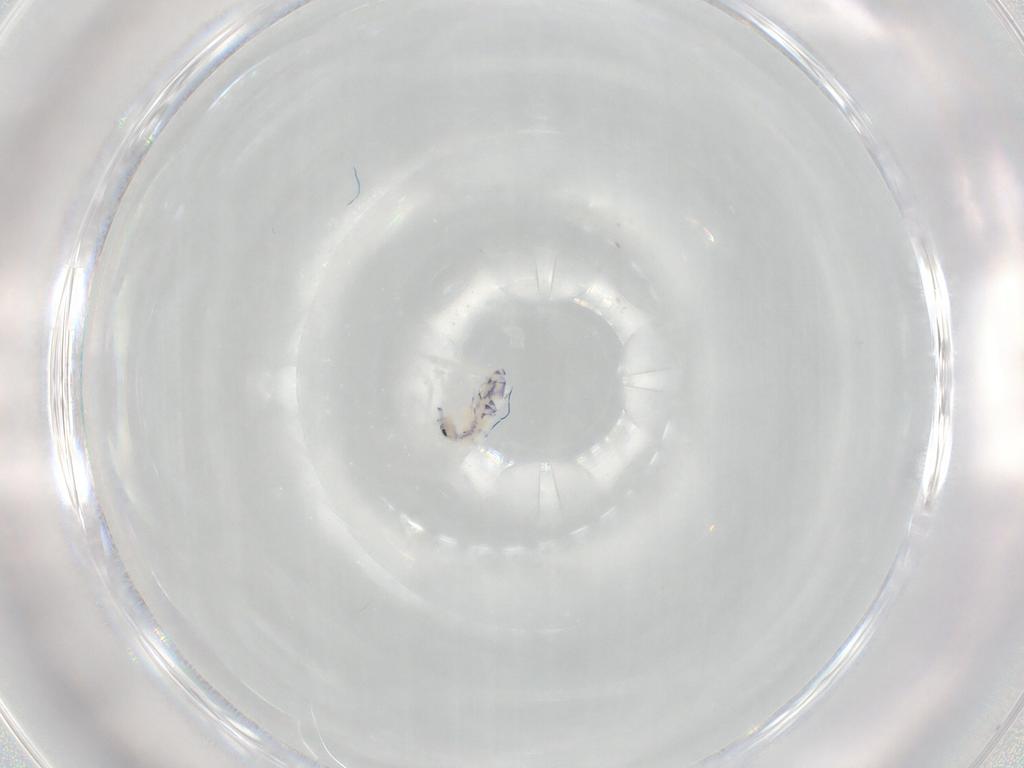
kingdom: Animalia
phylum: Arthropoda
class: Collembola
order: Entomobryomorpha
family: Entomobryidae
